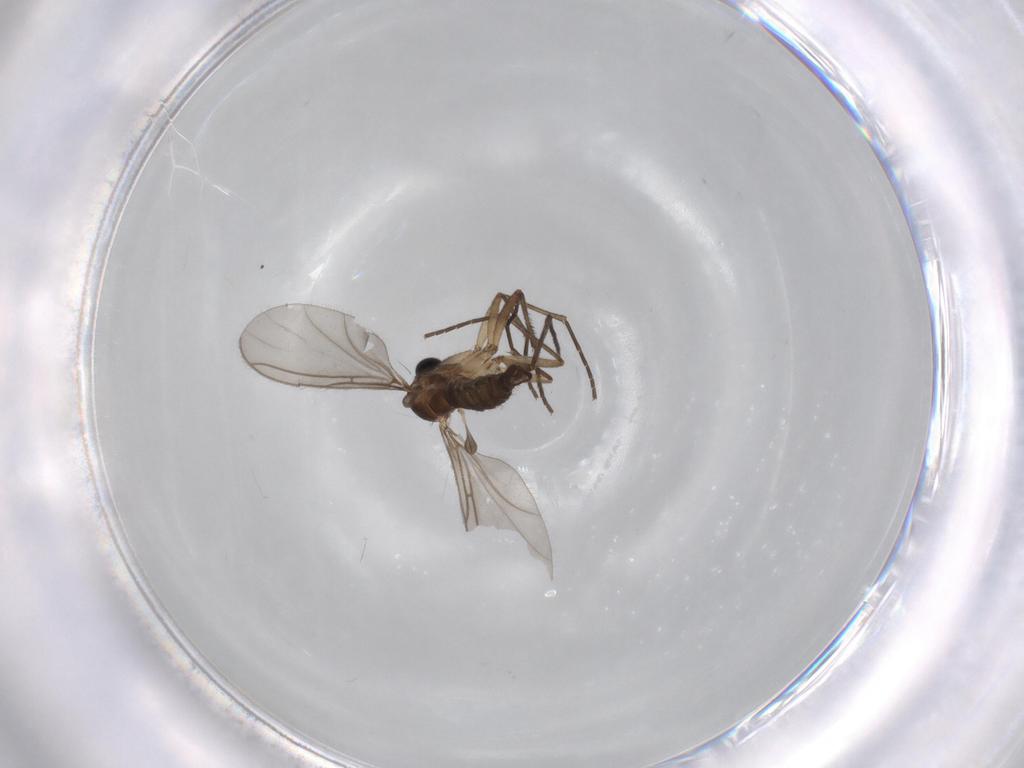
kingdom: Animalia
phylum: Arthropoda
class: Insecta
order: Diptera
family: Sciaridae
